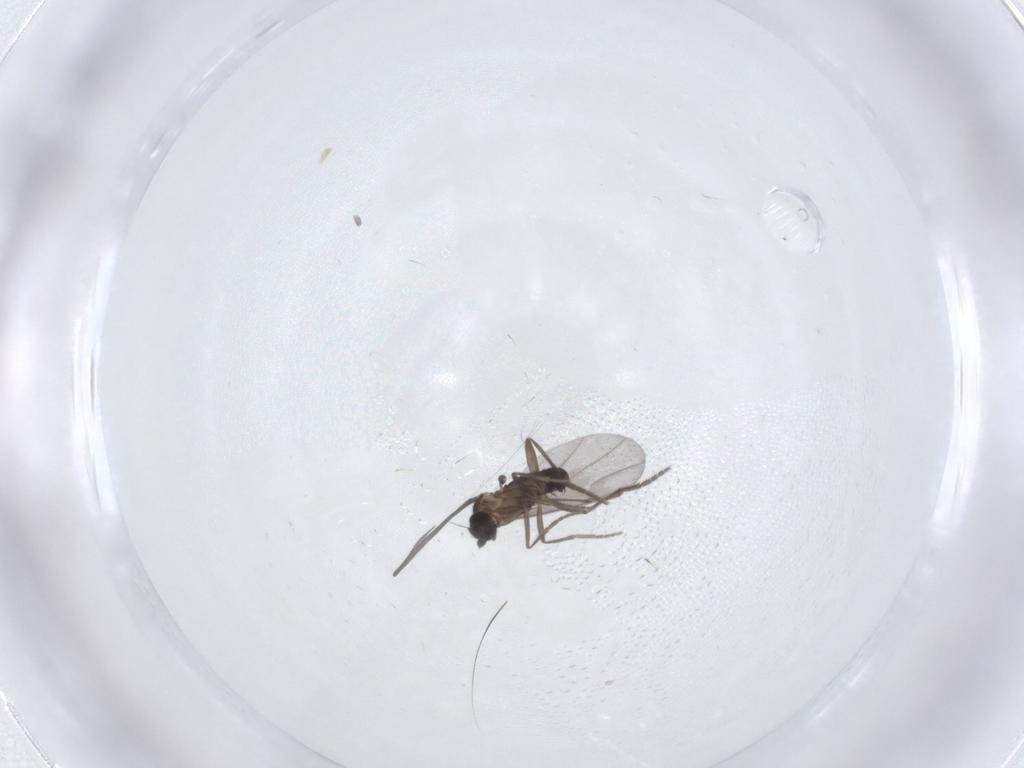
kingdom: Animalia
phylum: Arthropoda
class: Insecta
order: Diptera
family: Phoridae
